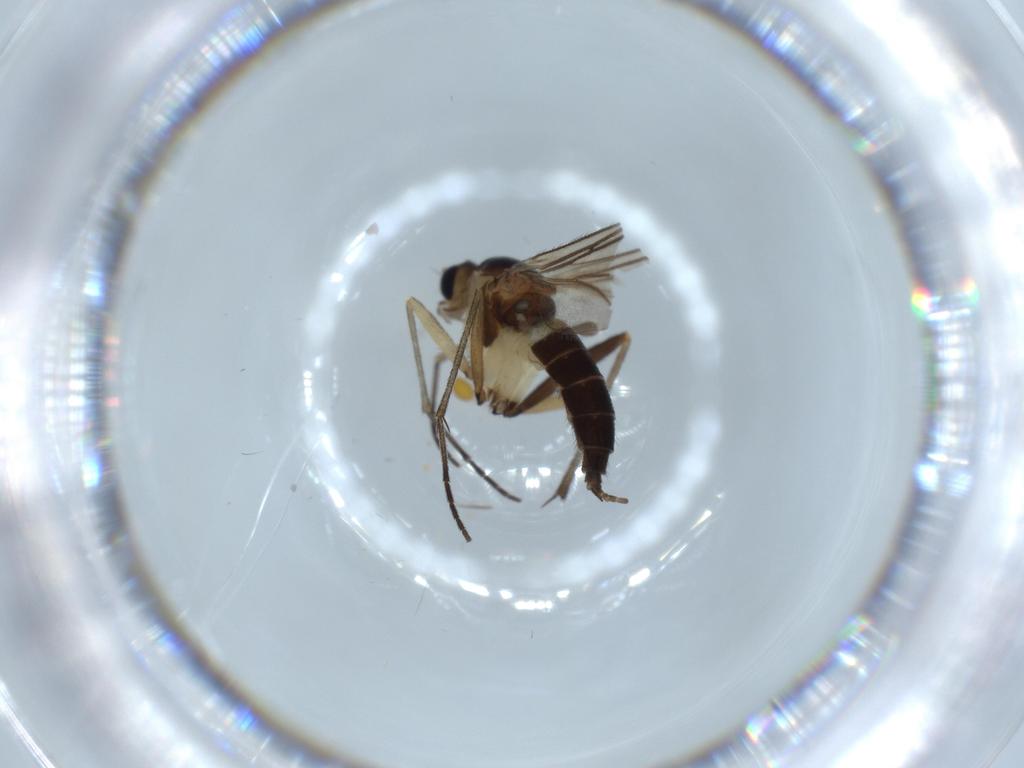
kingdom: Animalia
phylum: Arthropoda
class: Insecta
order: Diptera
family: Sciaridae
